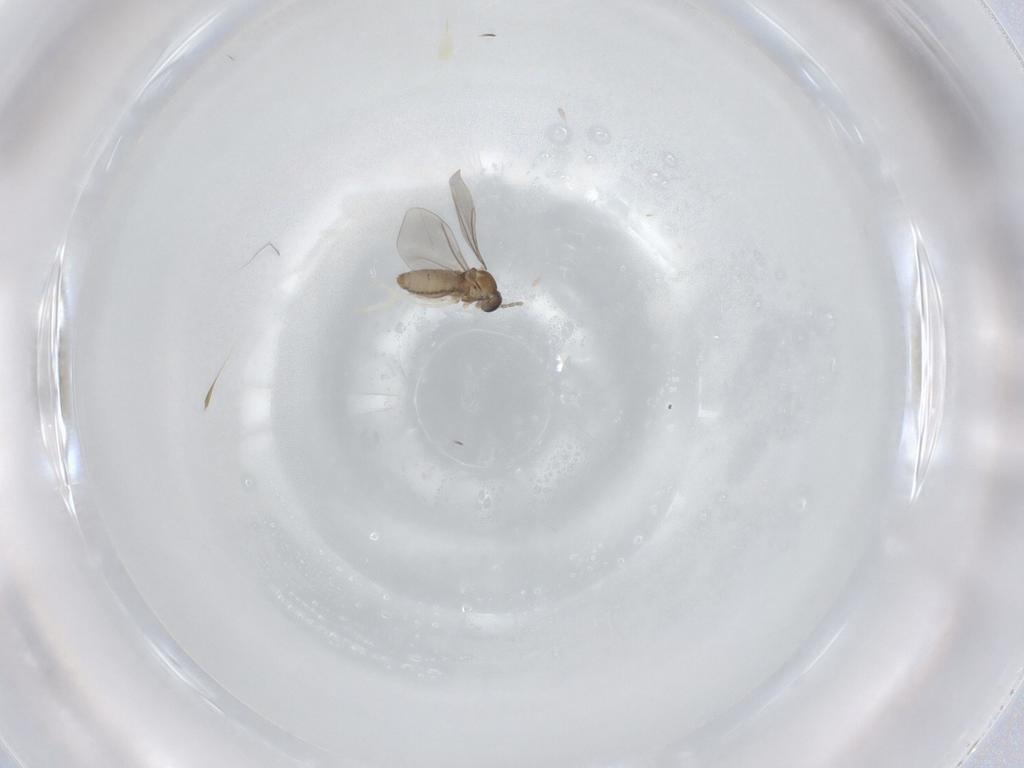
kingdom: Animalia
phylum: Arthropoda
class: Insecta
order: Diptera
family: Cecidomyiidae
